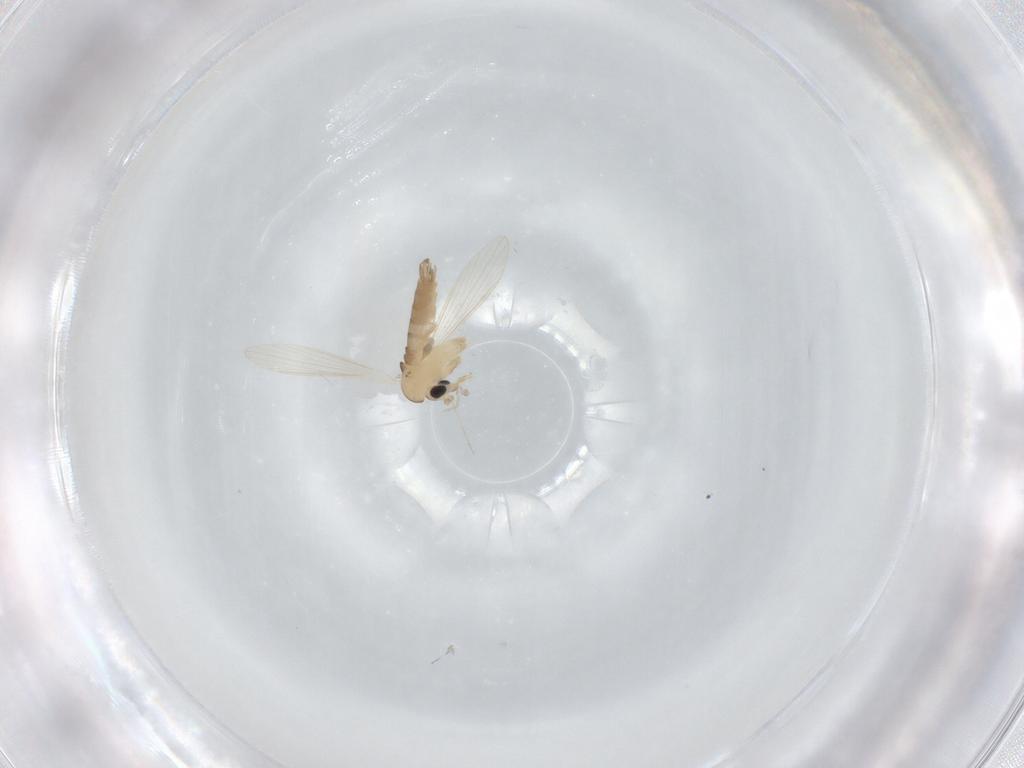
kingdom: Animalia
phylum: Arthropoda
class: Insecta
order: Diptera
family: Psychodidae
